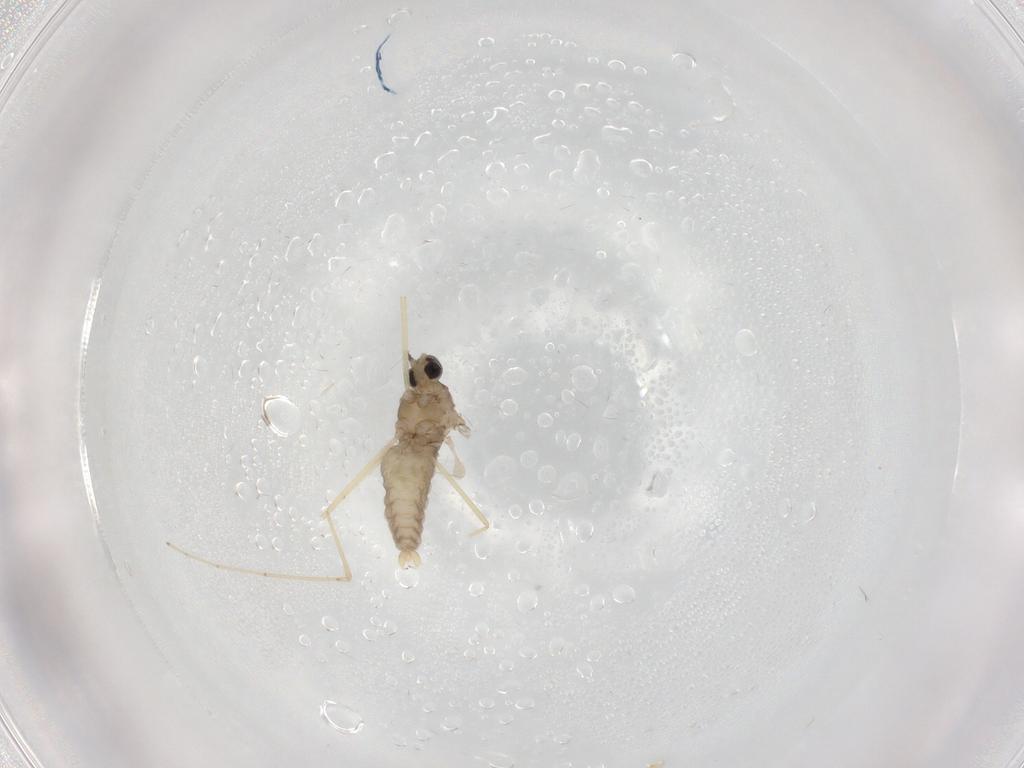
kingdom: Animalia
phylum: Arthropoda
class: Insecta
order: Diptera
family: Cecidomyiidae
